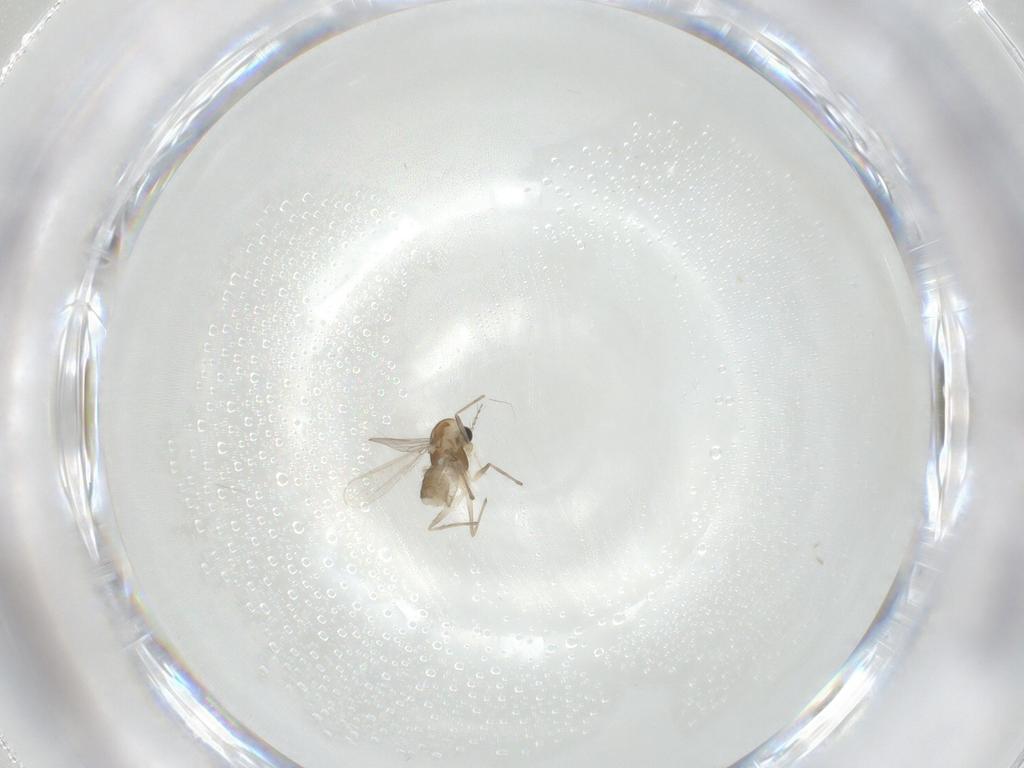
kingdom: Animalia
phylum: Arthropoda
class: Insecta
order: Diptera
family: Chironomidae
